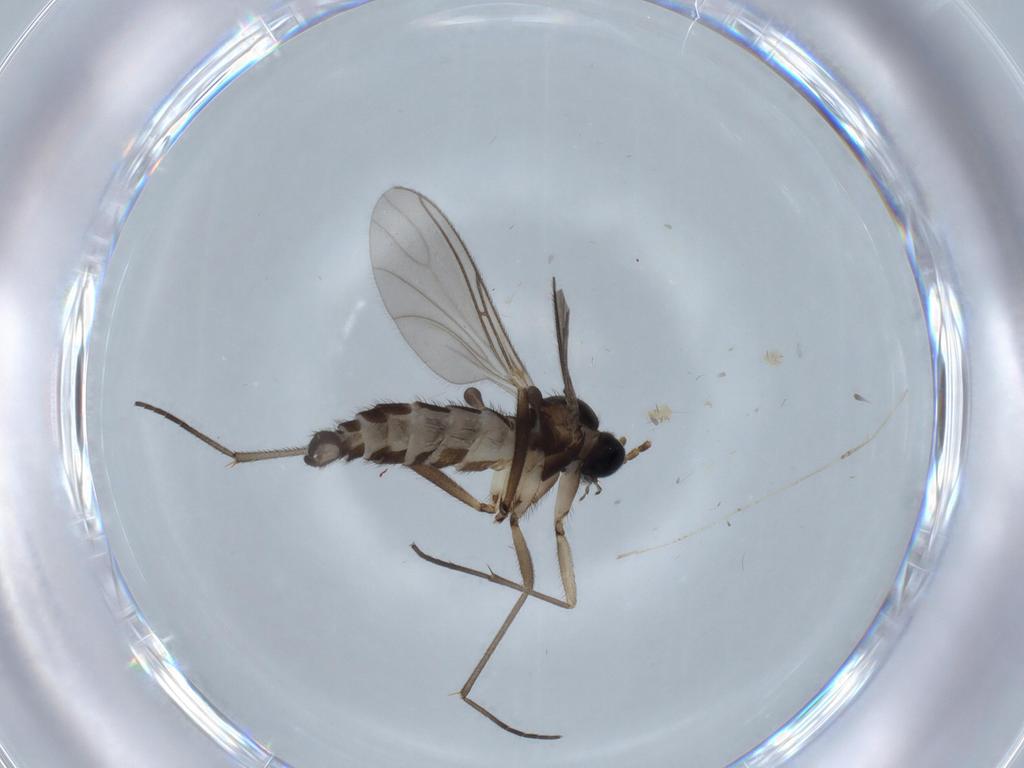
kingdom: Animalia
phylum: Arthropoda
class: Insecta
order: Diptera
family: Sciaridae
